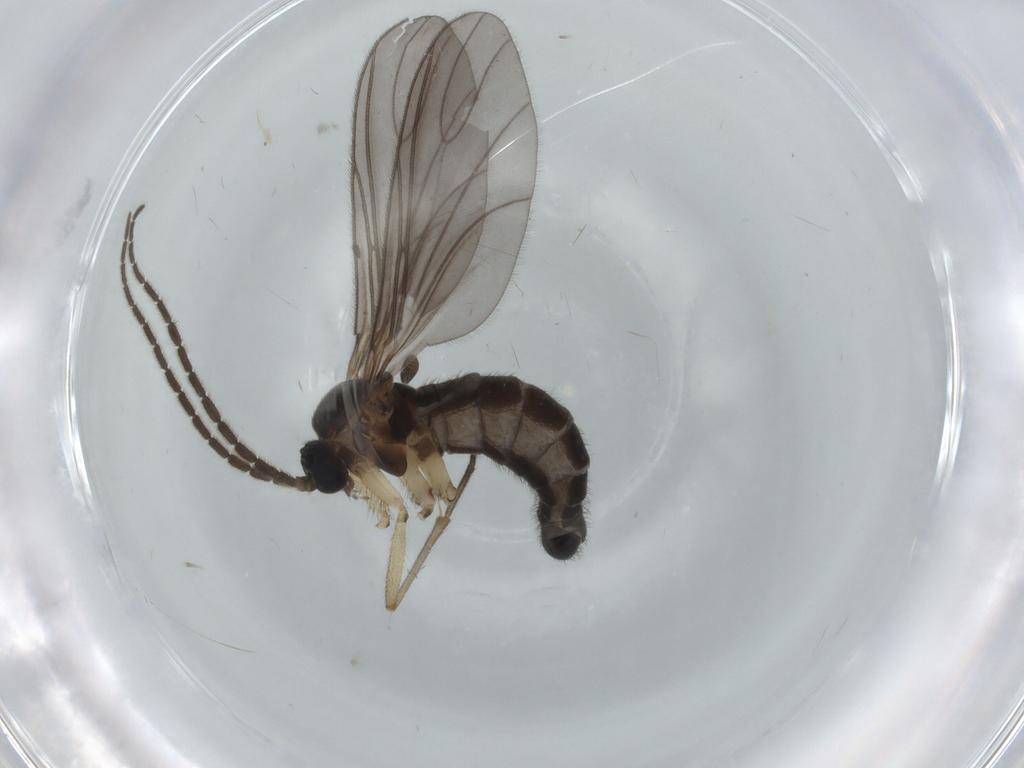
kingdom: Animalia
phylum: Arthropoda
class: Insecta
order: Diptera
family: Sciaridae
